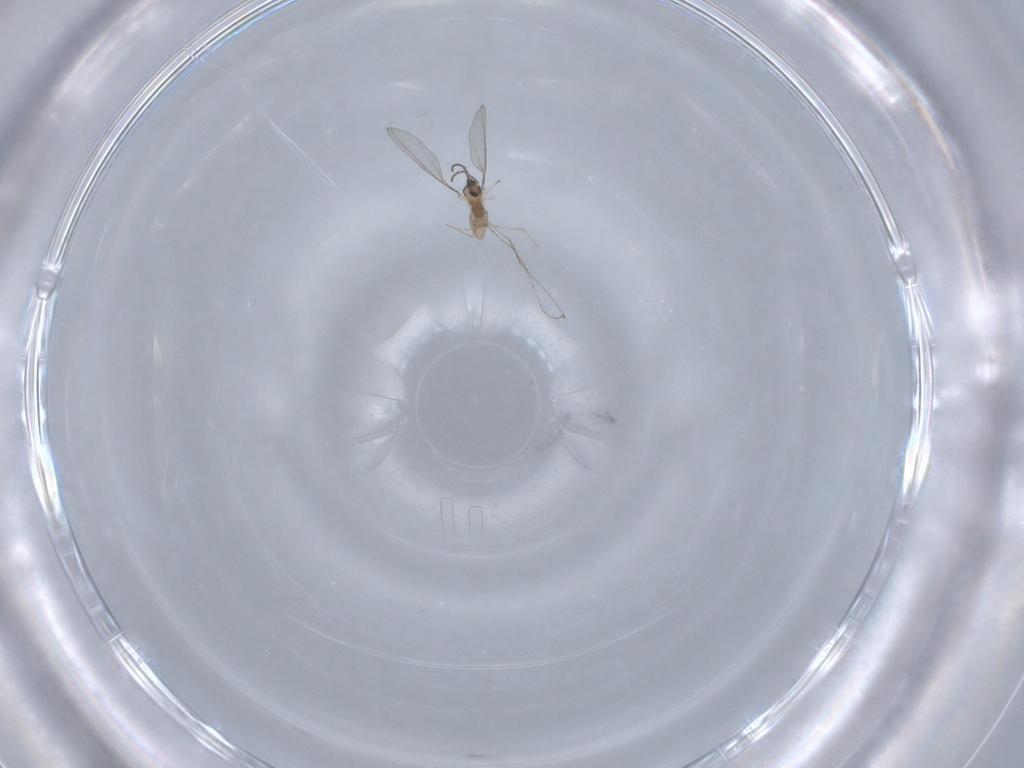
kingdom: Animalia
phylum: Arthropoda
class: Insecta
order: Diptera
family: Cecidomyiidae
